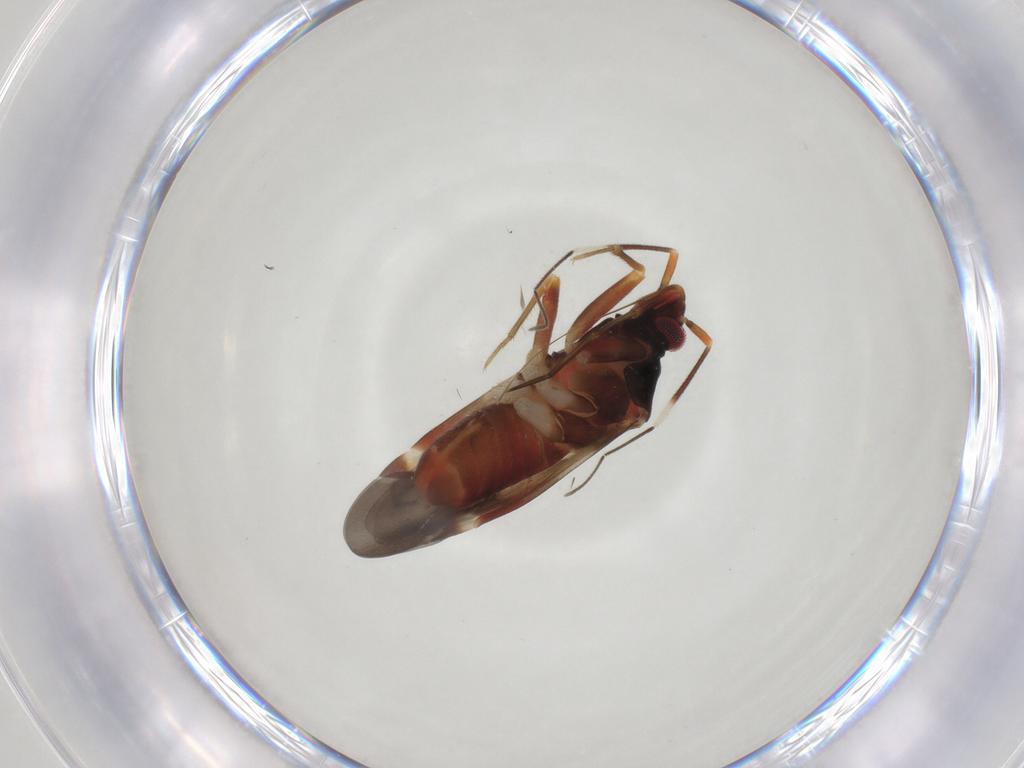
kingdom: Animalia
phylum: Arthropoda
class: Insecta
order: Hemiptera
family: Miridae
